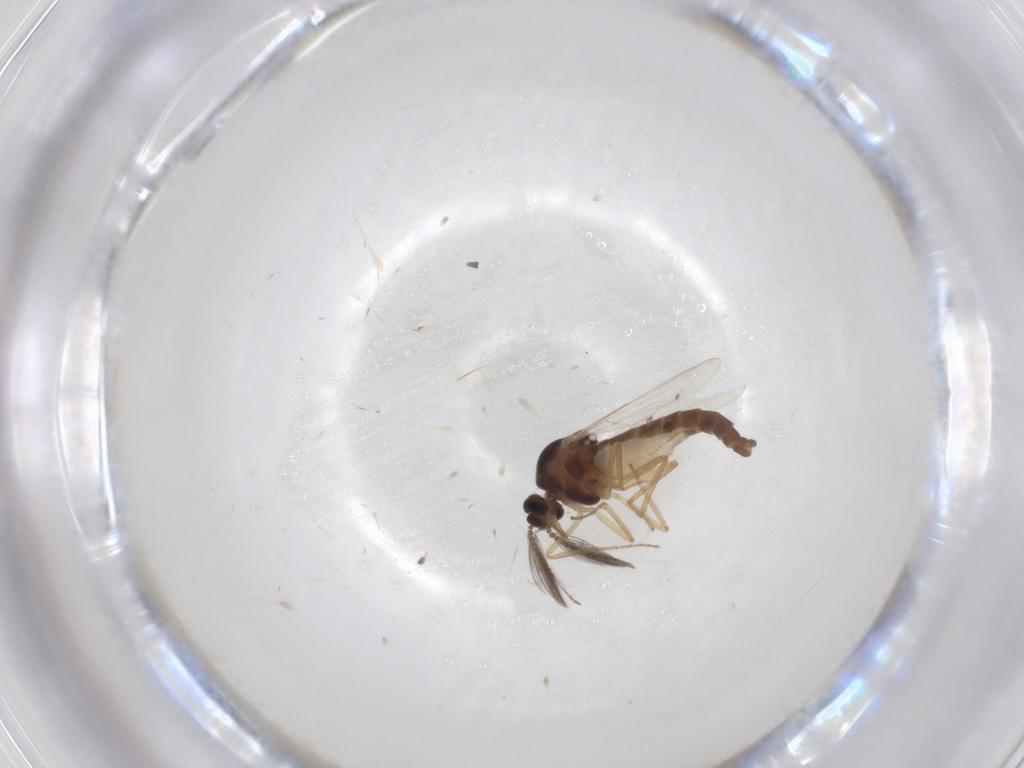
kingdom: Animalia
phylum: Arthropoda
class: Insecta
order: Diptera
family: Ceratopogonidae
